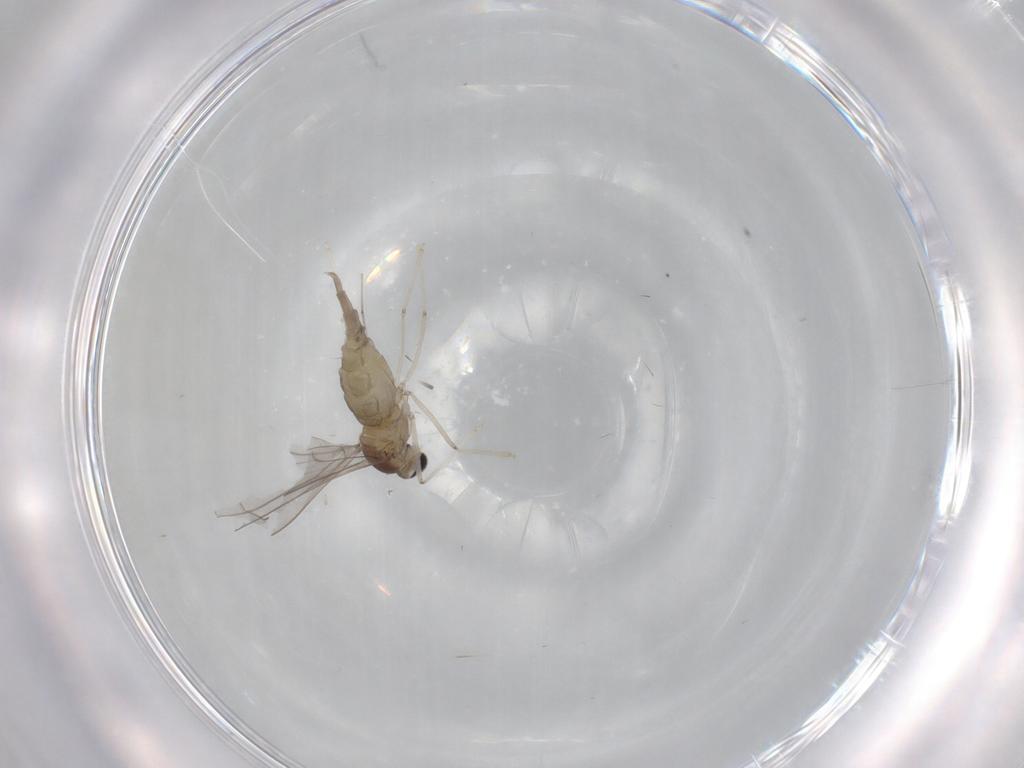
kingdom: Animalia
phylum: Arthropoda
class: Insecta
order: Diptera
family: Cecidomyiidae
